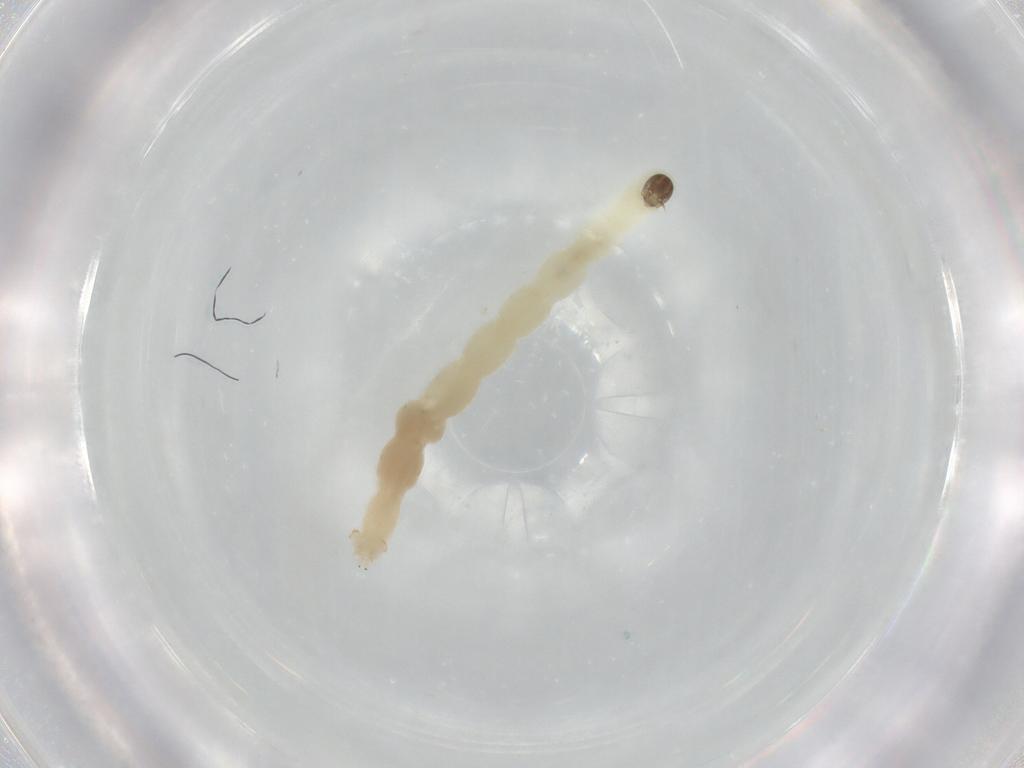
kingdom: Animalia
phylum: Arthropoda
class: Insecta
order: Diptera
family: Chironomidae
